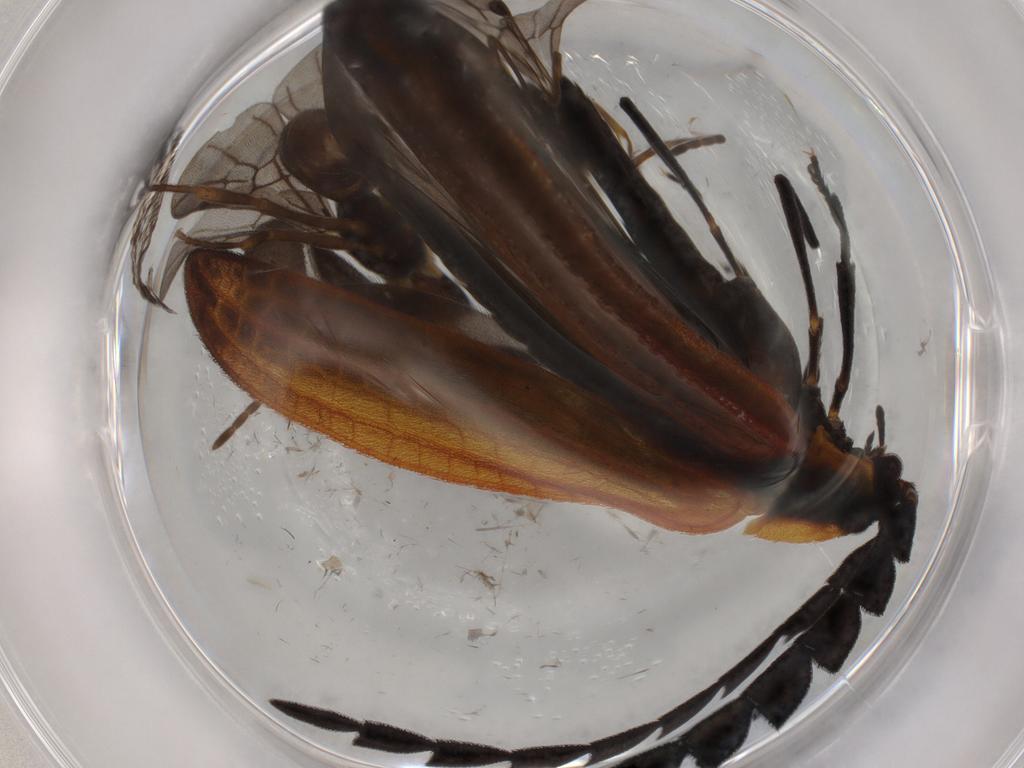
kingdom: Animalia
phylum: Arthropoda
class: Insecta
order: Coleoptera
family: Lycidae
